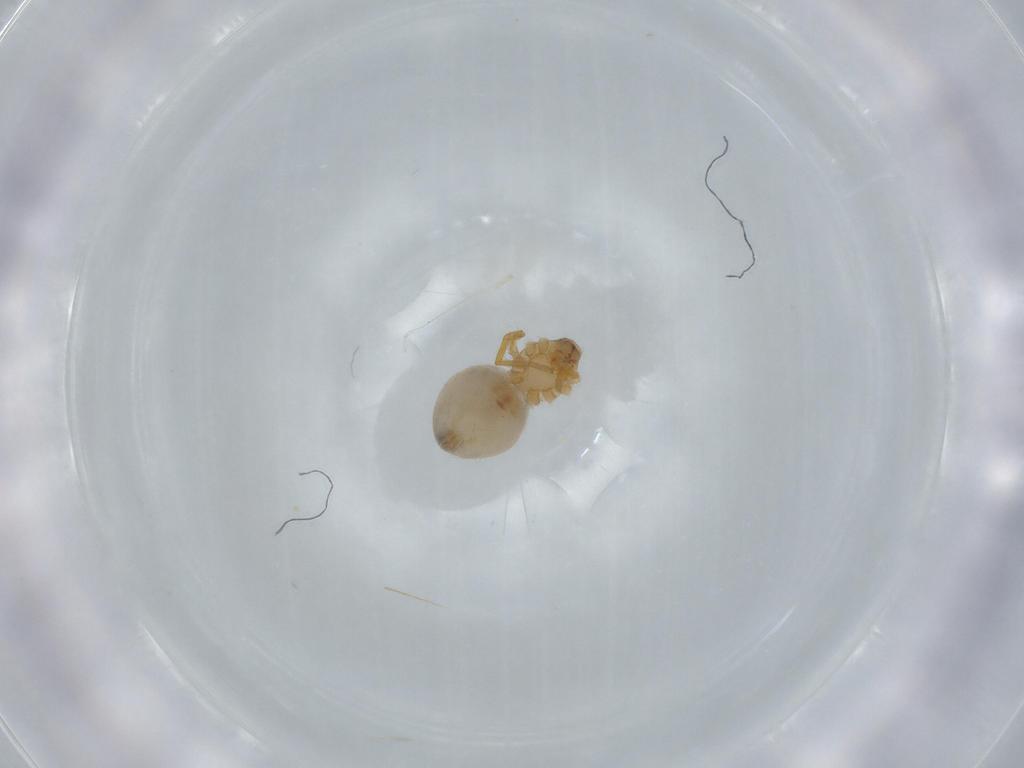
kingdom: Animalia
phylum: Arthropoda
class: Arachnida
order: Araneae
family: Oonopidae
